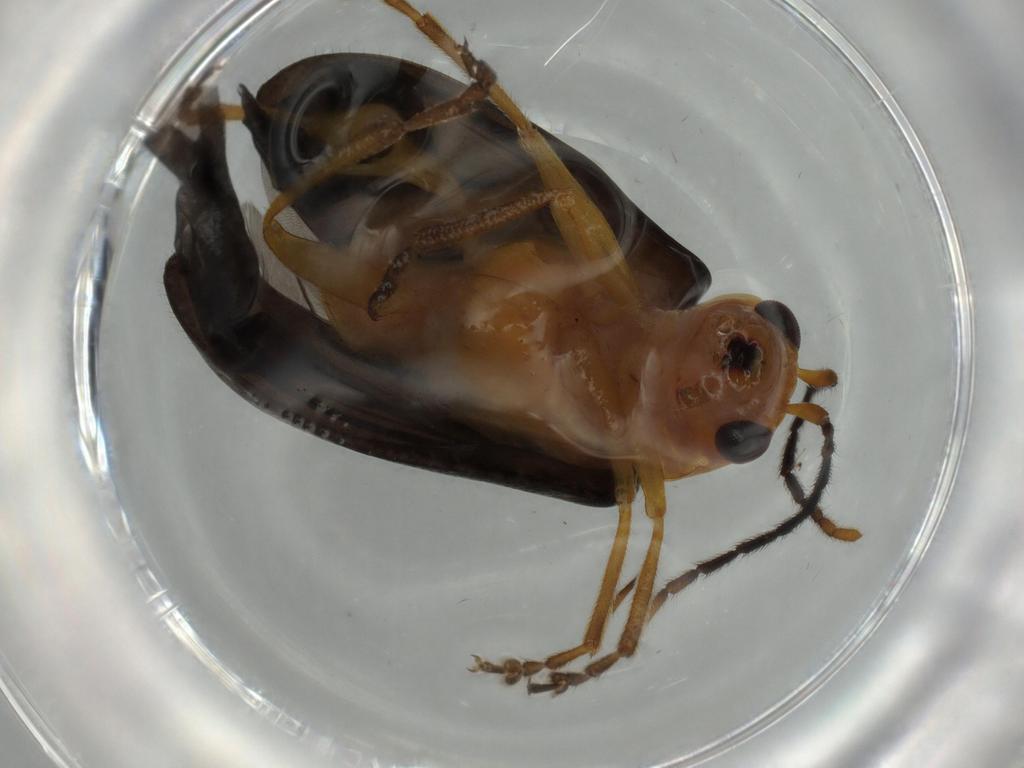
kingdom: Animalia
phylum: Arthropoda
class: Insecta
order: Coleoptera
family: Chrysomelidae
